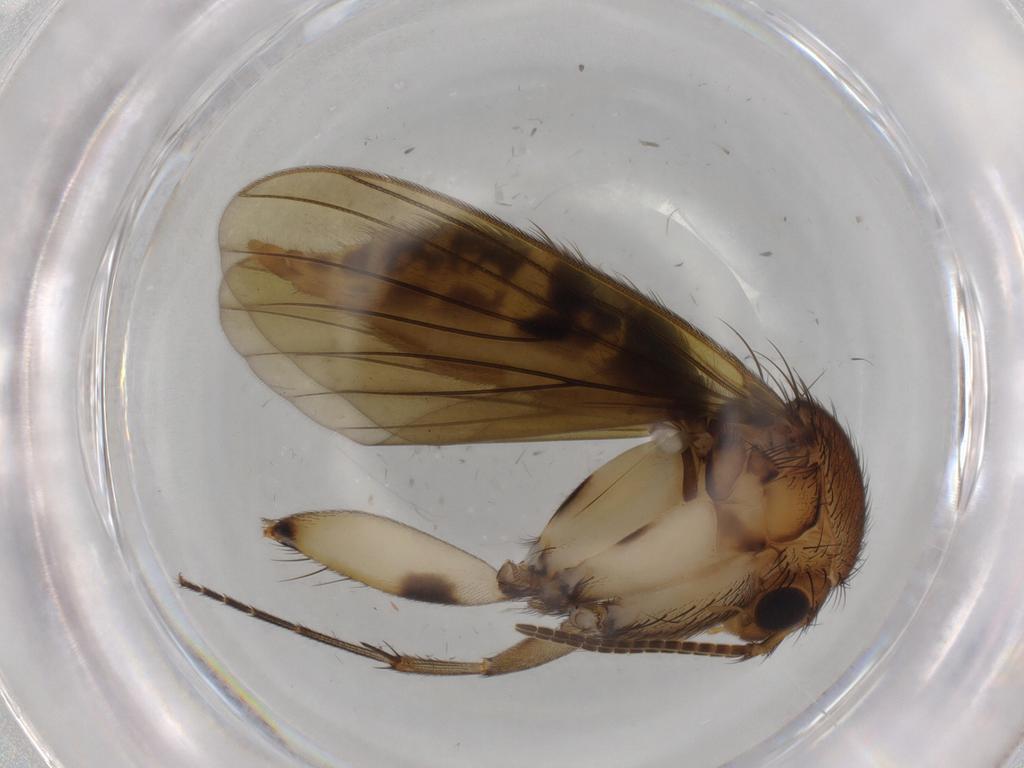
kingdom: Animalia
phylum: Arthropoda
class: Insecta
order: Diptera
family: Mycetophilidae
